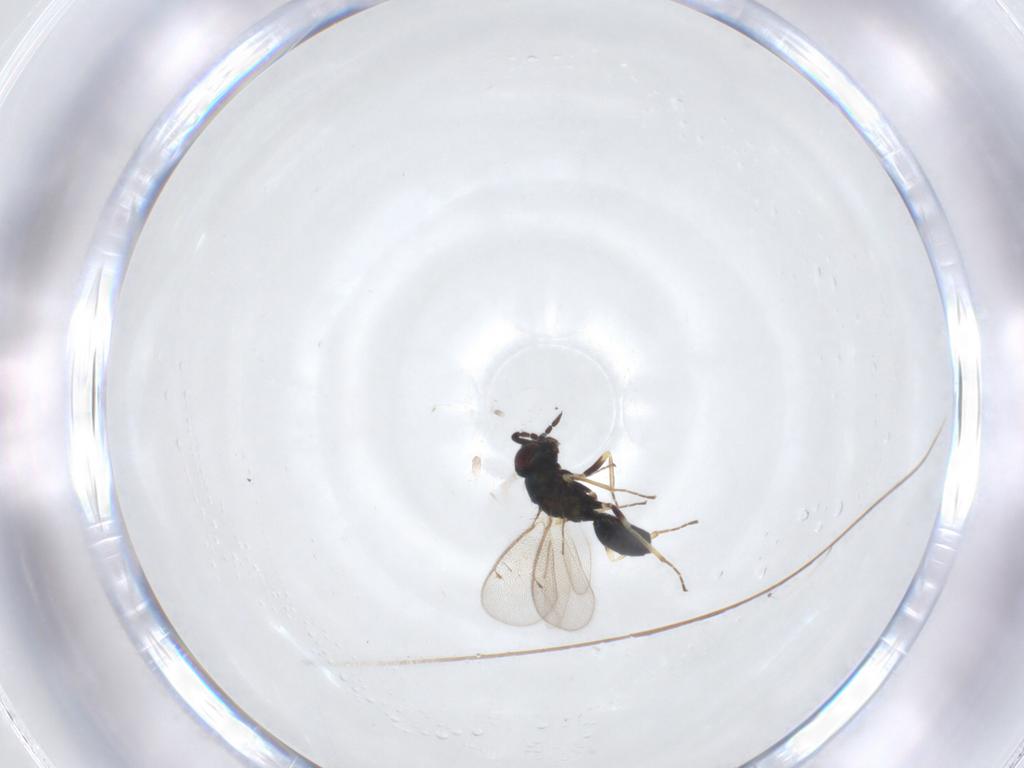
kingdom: Animalia
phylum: Arthropoda
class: Insecta
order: Hymenoptera
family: Eulophidae
